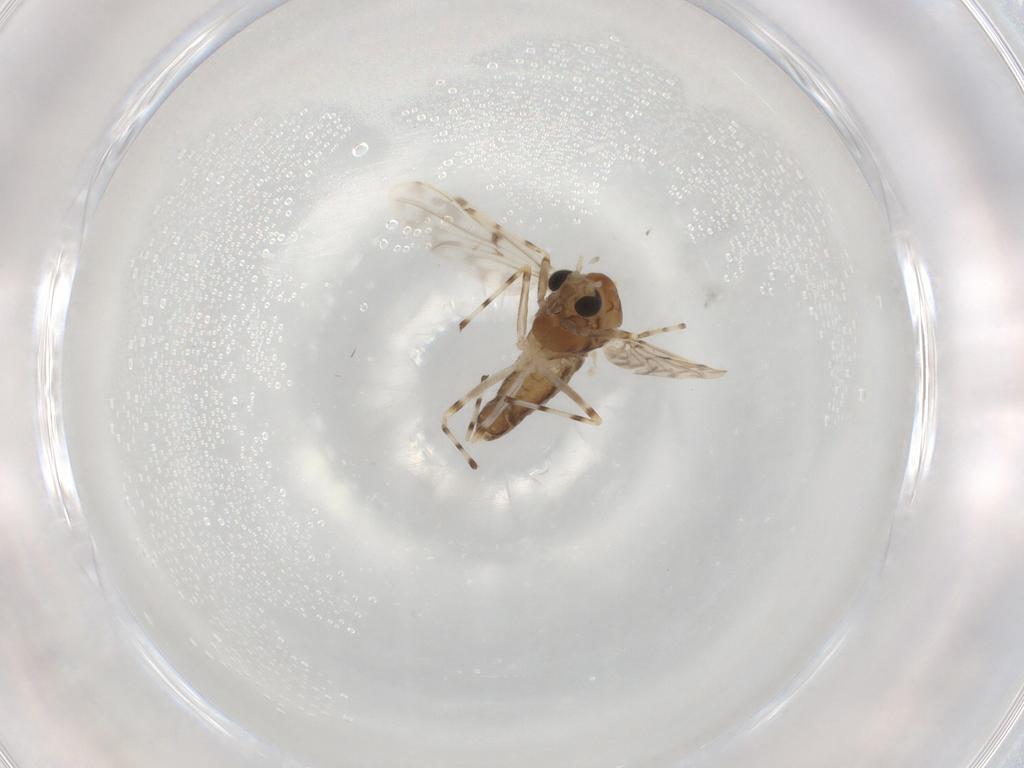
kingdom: Animalia
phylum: Arthropoda
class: Insecta
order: Diptera
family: Chironomidae
